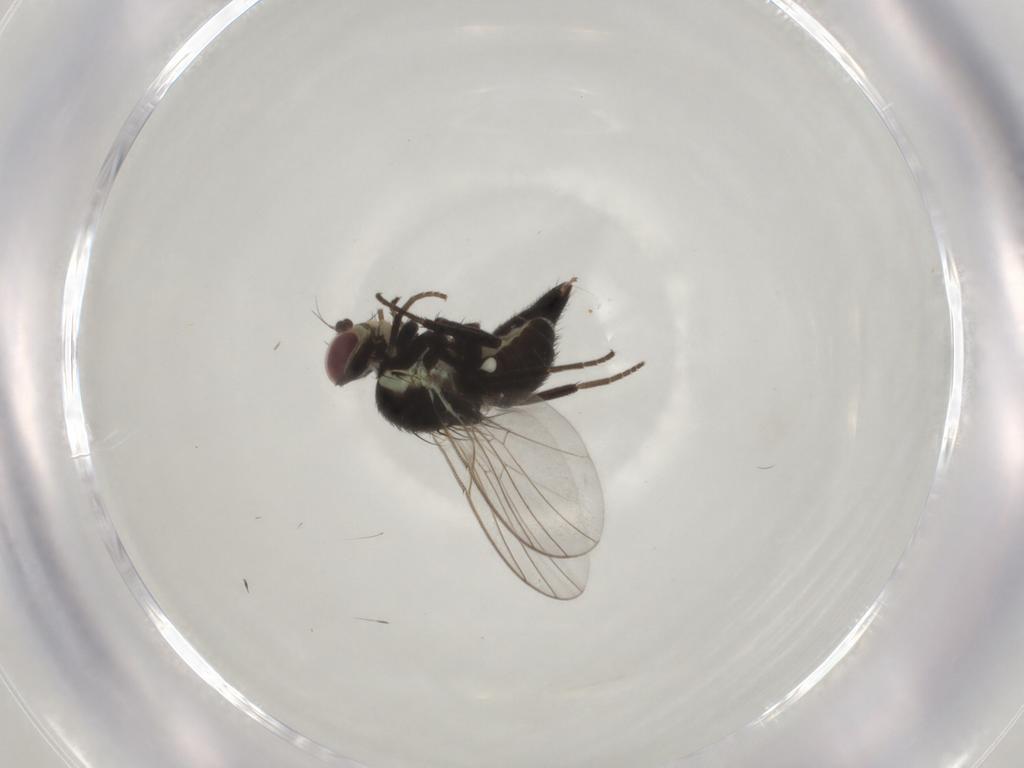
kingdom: Animalia
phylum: Arthropoda
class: Insecta
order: Diptera
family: Agromyzidae
